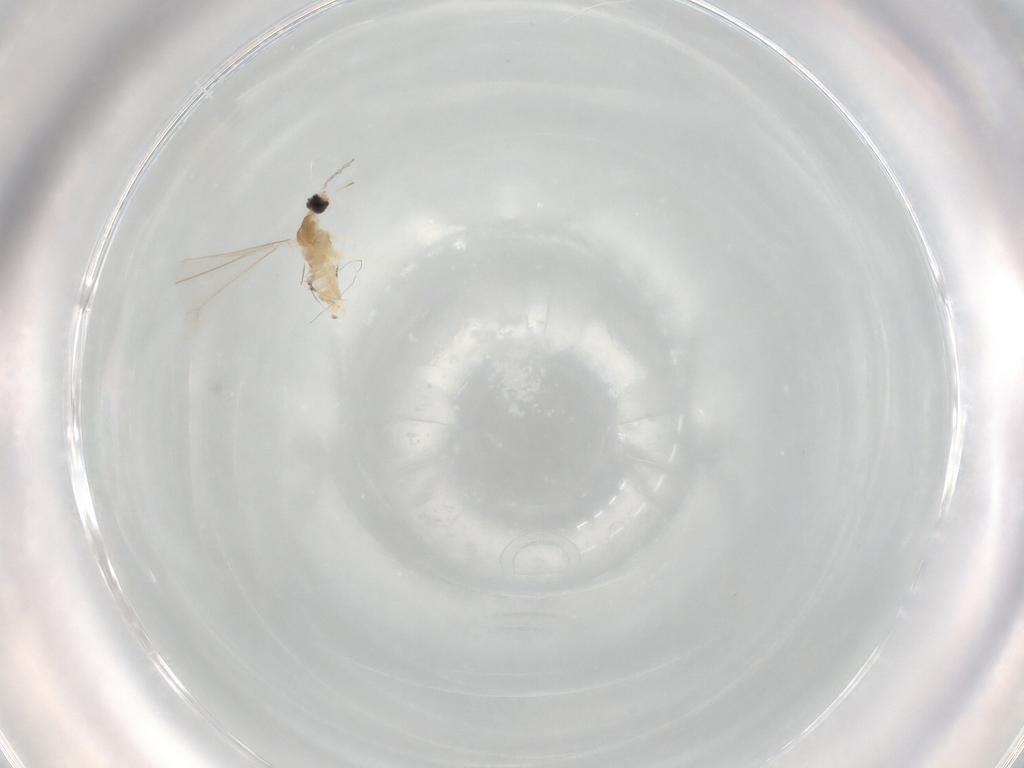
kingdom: Animalia
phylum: Arthropoda
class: Insecta
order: Diptera
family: Cecidomyiidae
